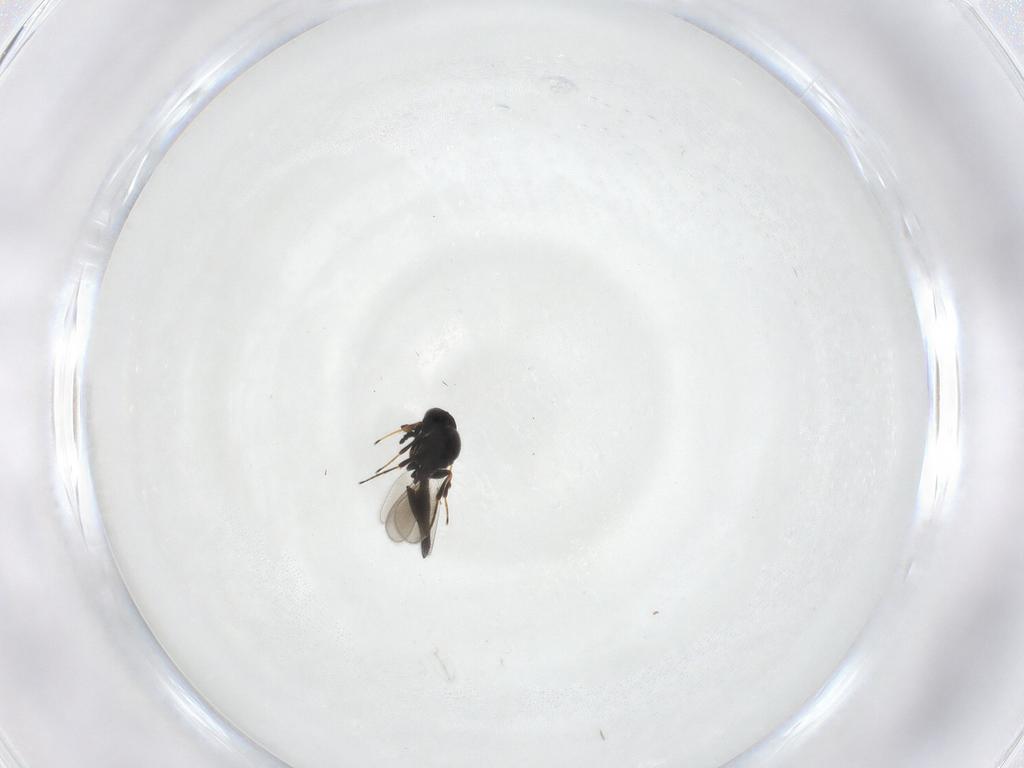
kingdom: Animalia
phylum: Arthropoda
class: Insecta
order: Hymenoptera
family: Platygastridae
